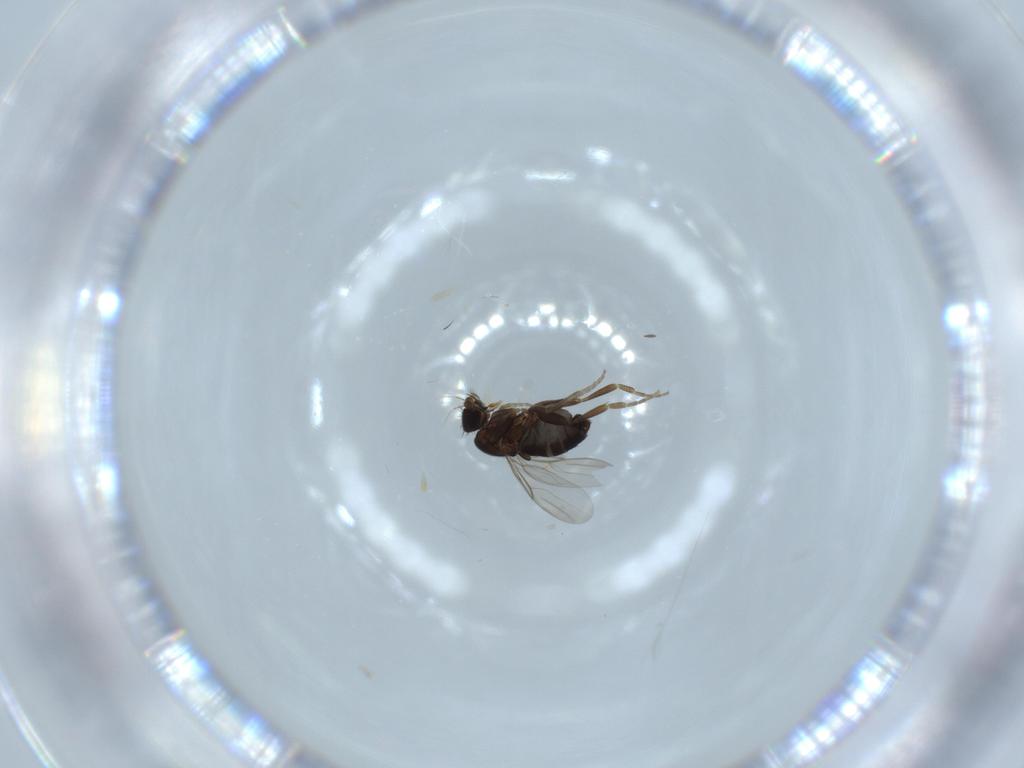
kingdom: Animalia
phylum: Arthropoda
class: Insecta
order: Diptera
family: Phoridae
